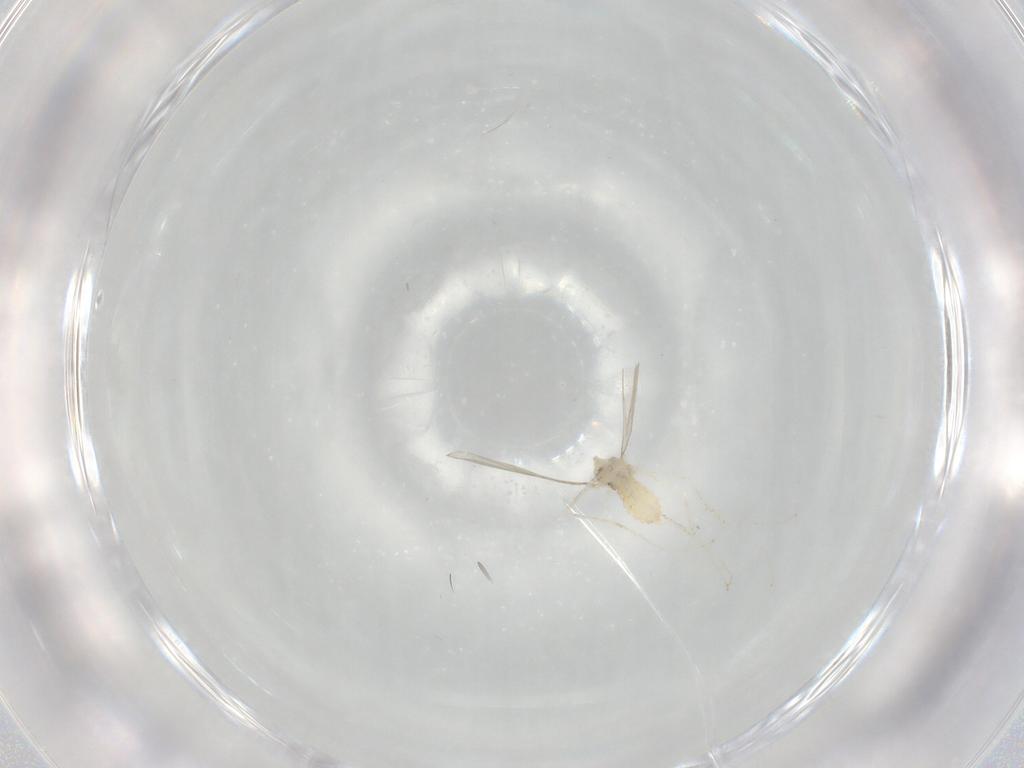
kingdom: Animalia
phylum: Arthropoda
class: Insecta
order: Diptera
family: Cecidomyiidae
